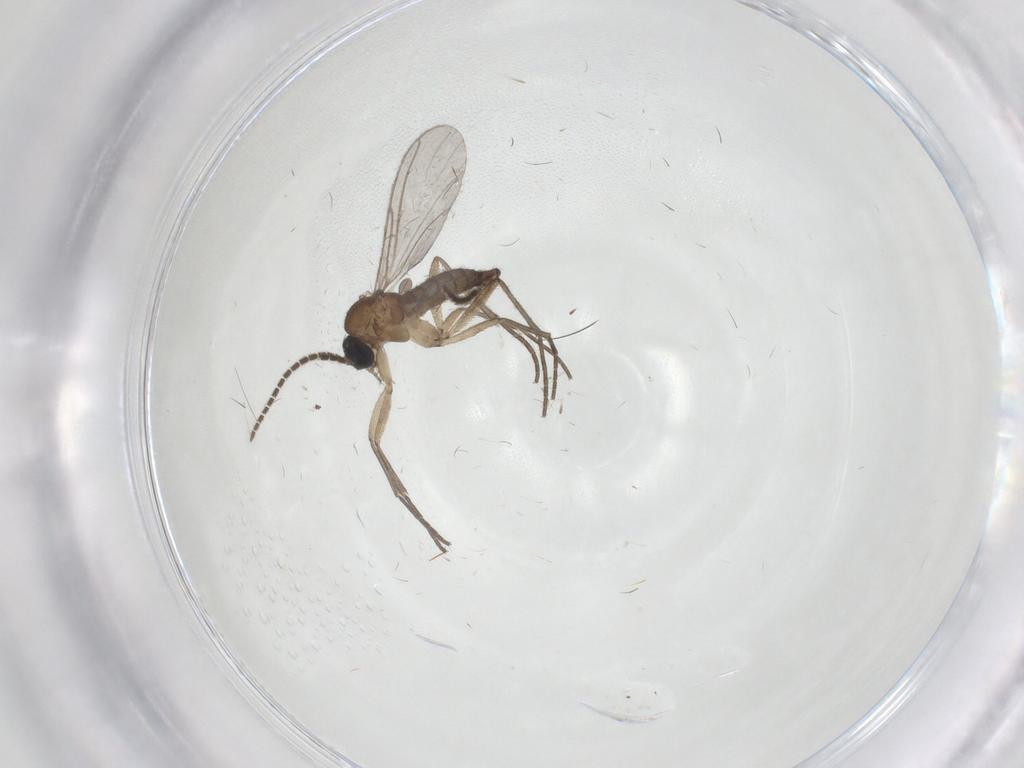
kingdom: Animalia
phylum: Arthropoda
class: Insecta
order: Diptera
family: Sciaridae
